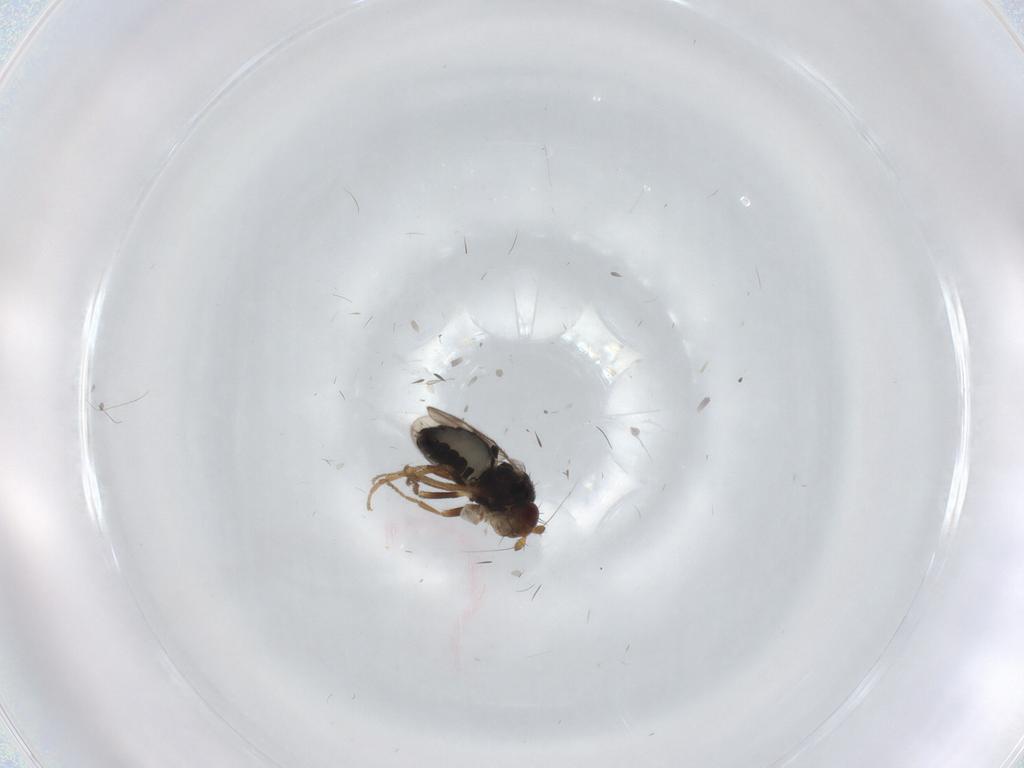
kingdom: Animalia
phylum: Arthropoda
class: Insecta
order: Diptera
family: Sphaeroceridae
